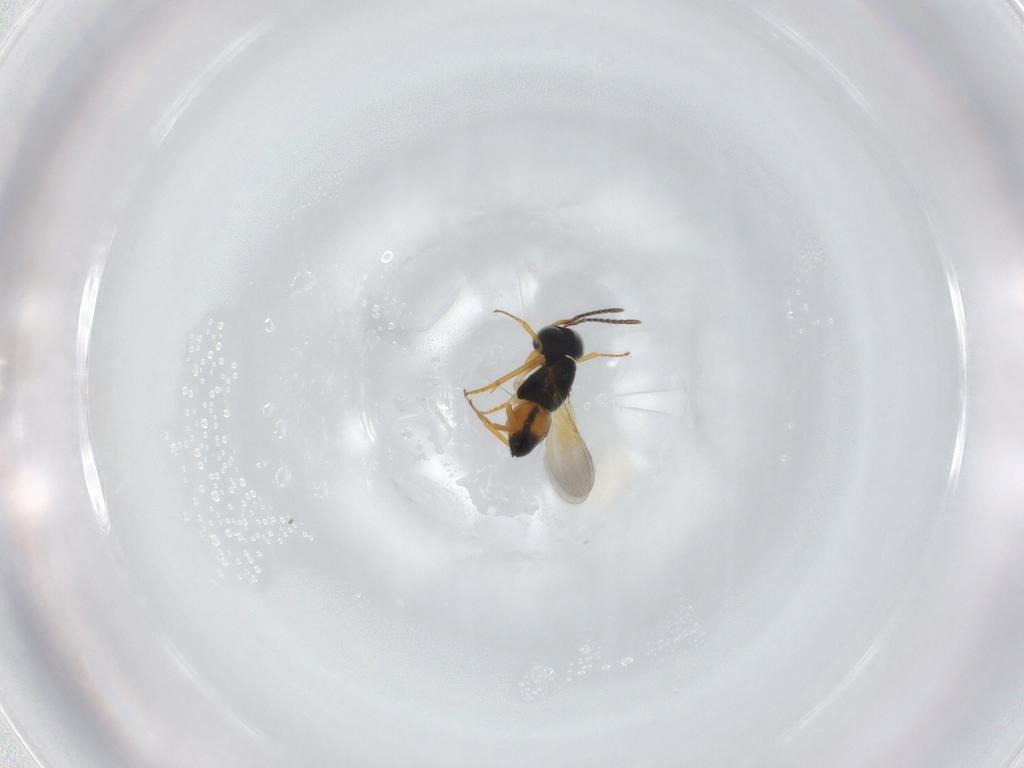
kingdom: Animalia
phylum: Arthropoda
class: Insecta
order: Hymenoptera
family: Encyrtidae
